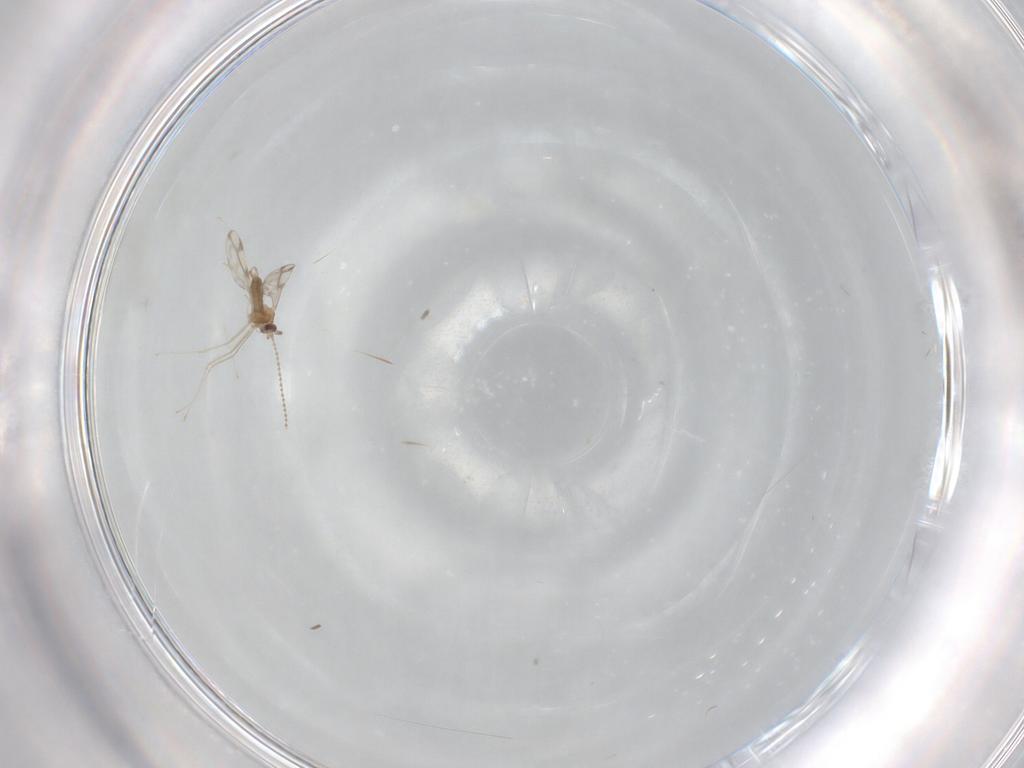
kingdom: Animalia
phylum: Arthropoda
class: Insecta
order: Diptera
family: Cecidomyiidae
